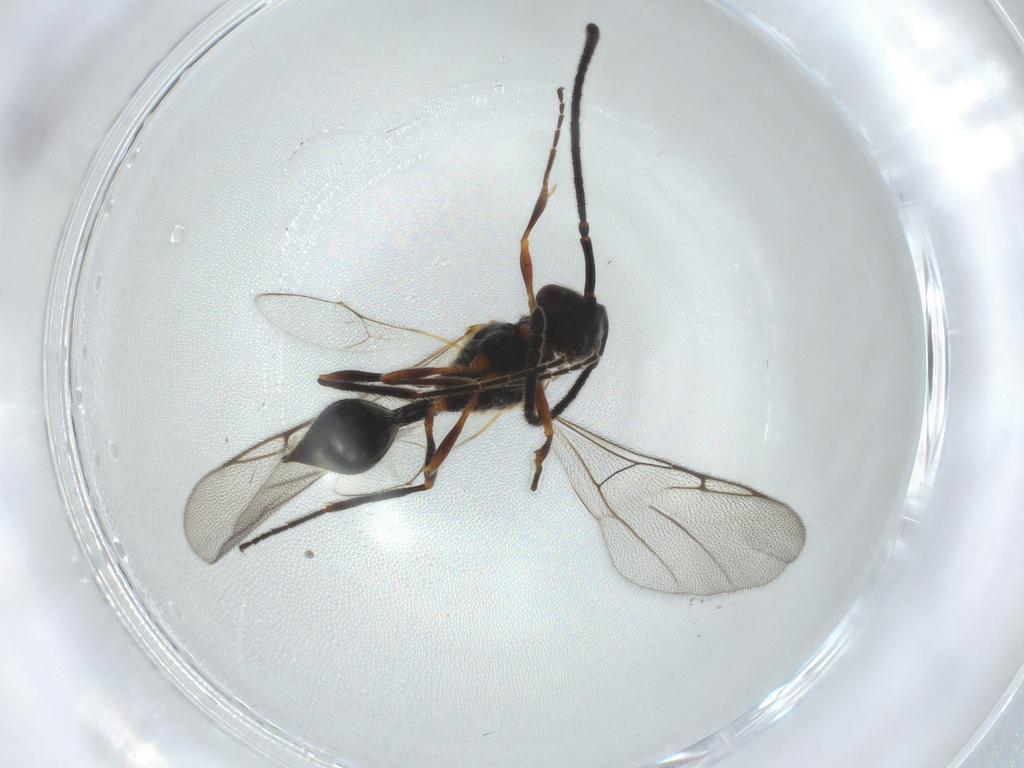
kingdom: Animalia
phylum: Arthropoda
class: Insecta
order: Hymenoptera
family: Diapriidae
